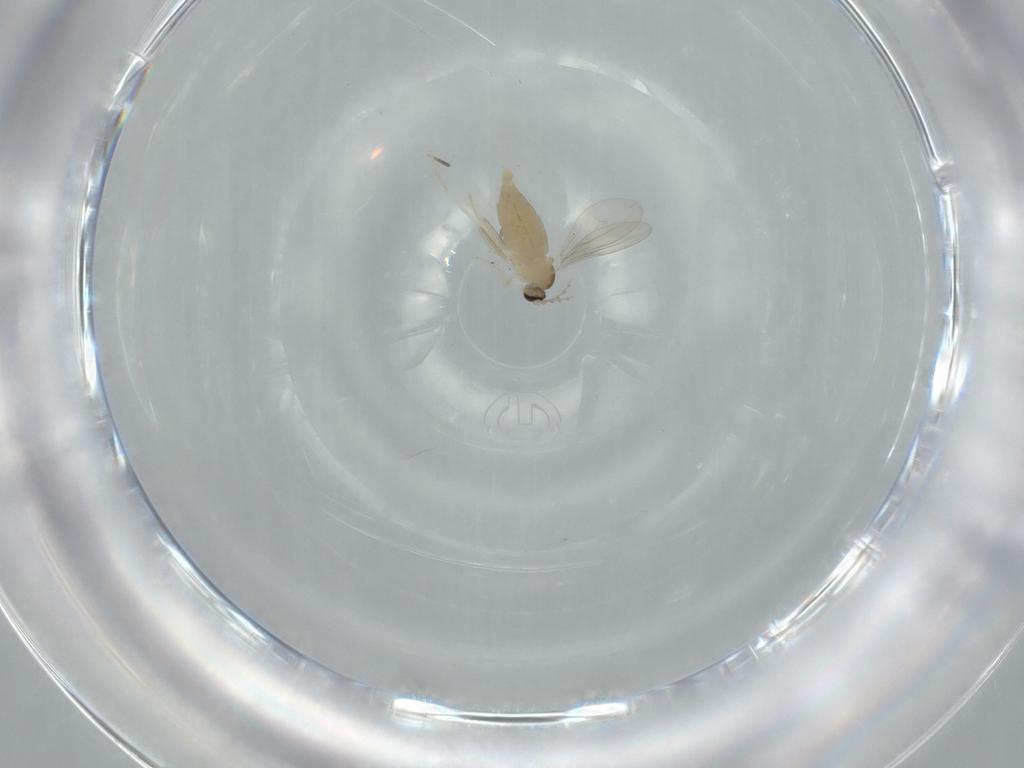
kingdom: Animalia
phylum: Arthropoda
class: Insecta
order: Diptera
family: Cecidomyiidae
